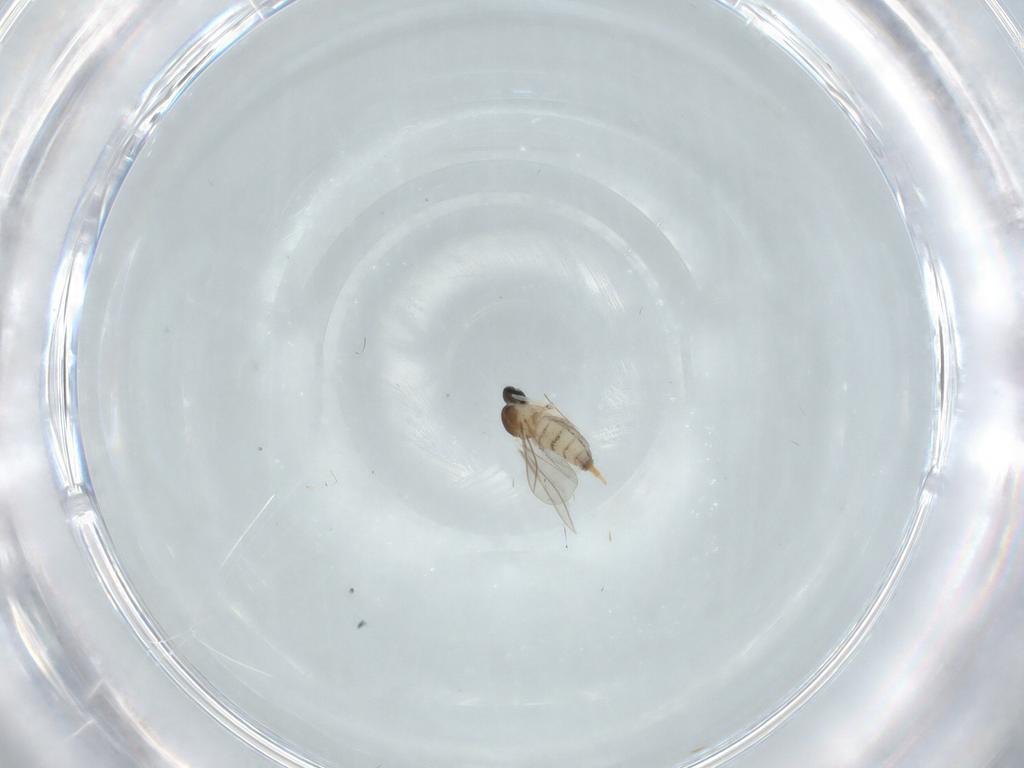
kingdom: Animalia
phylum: Arthropoda
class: Insecta
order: Diptera
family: Cecidomyiidae
